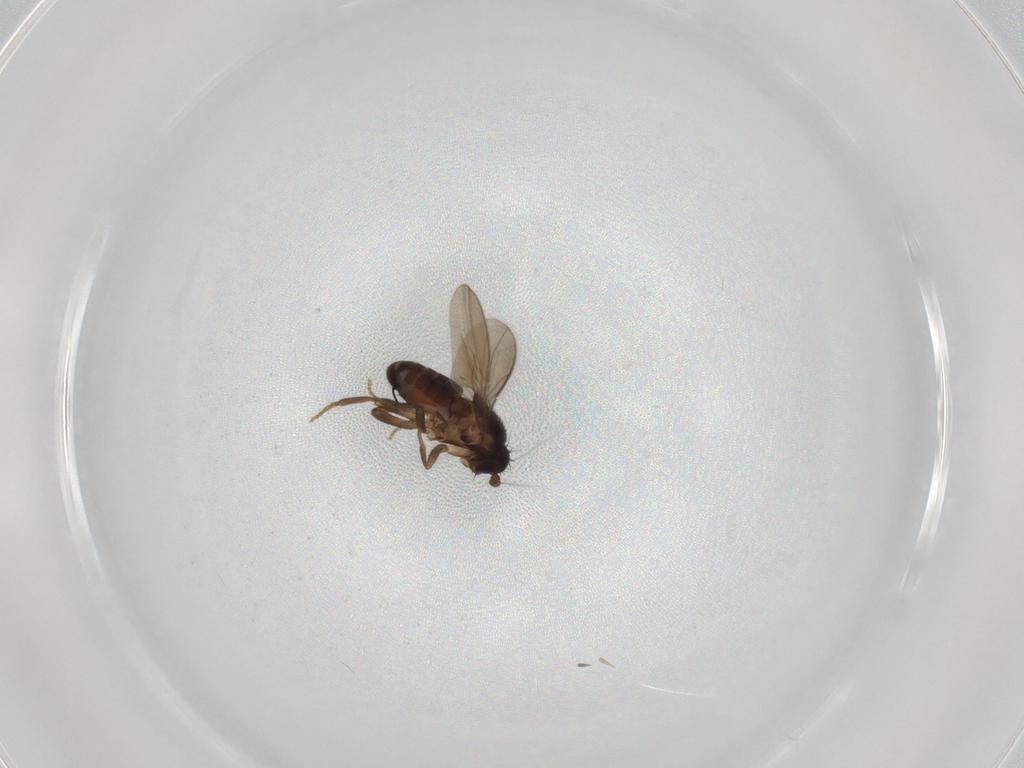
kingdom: Animalia
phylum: Arthropoda
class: Insecta
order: Diptera
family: Sphaeroceridae
